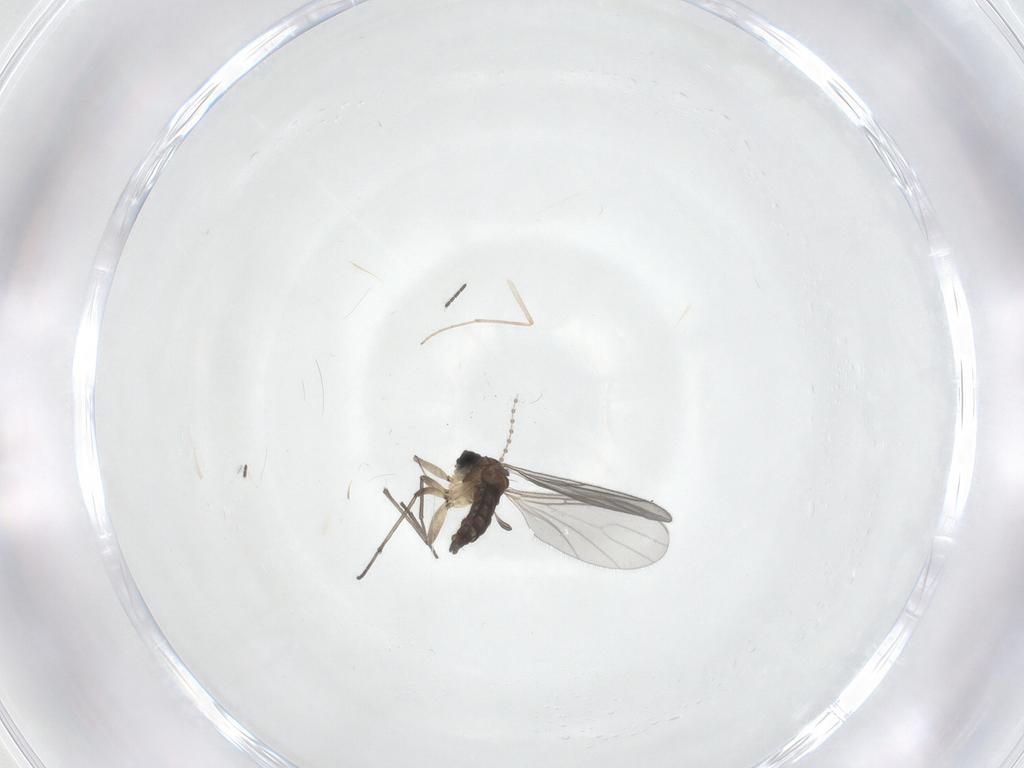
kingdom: Animalia
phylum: Arthropoda
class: Insecta
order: Diptera
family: Sciaridae
